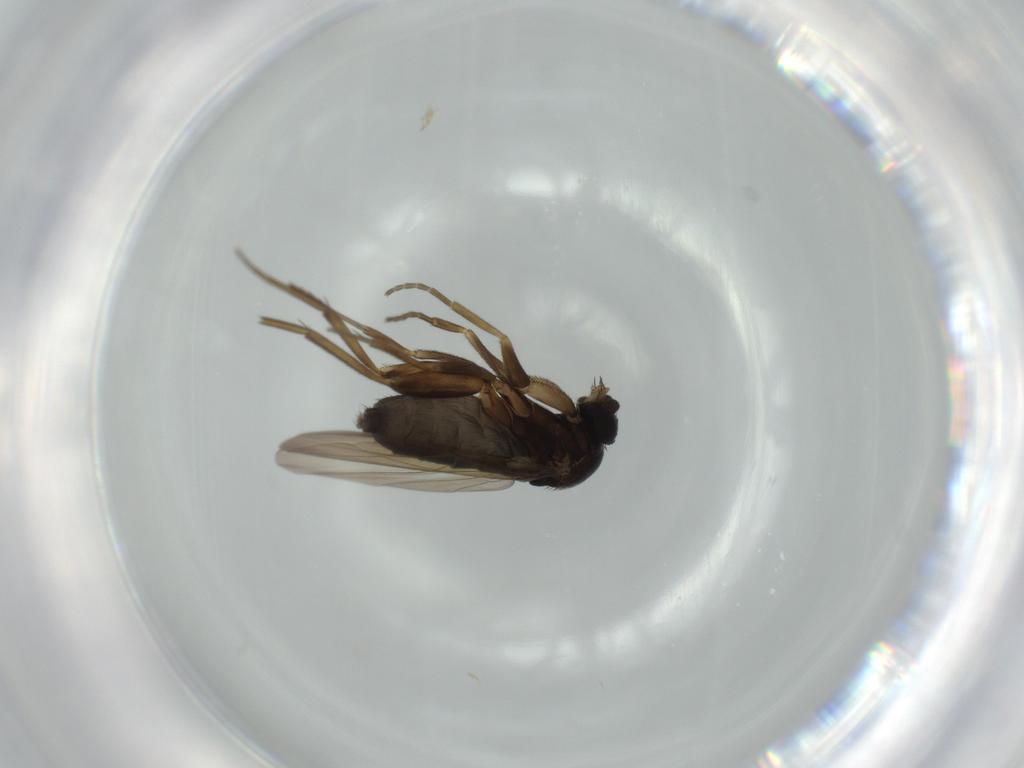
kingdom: Animalia
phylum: Arthropoda
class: Insecta
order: Diptera
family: Phoridae
